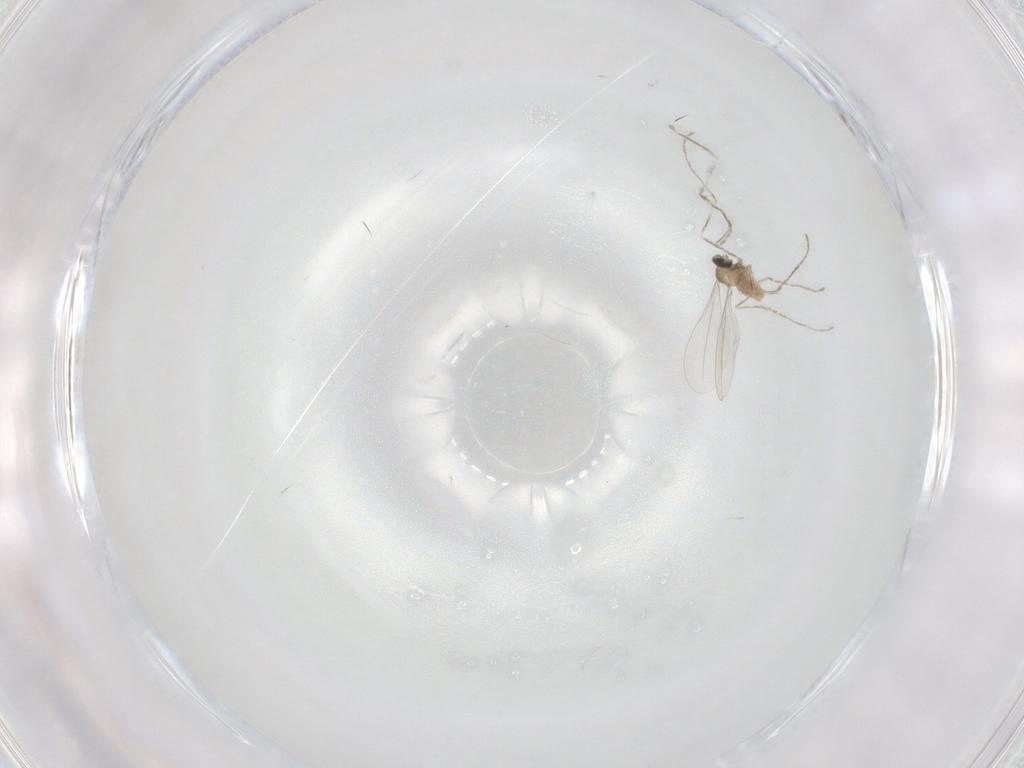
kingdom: Animalia
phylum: Arthropoda
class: Insecta
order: Diptera
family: Cecidomyiidae
